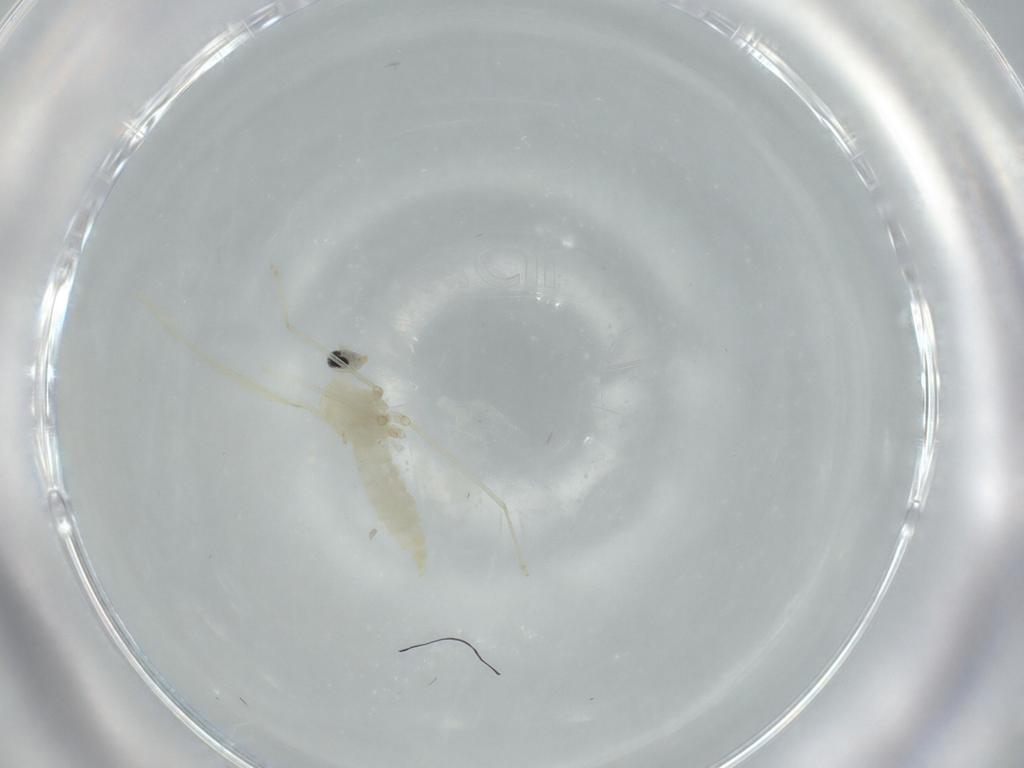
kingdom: Animalia
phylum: Arthropoda
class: Insecta
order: Diptera
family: Cecidomyiidae
